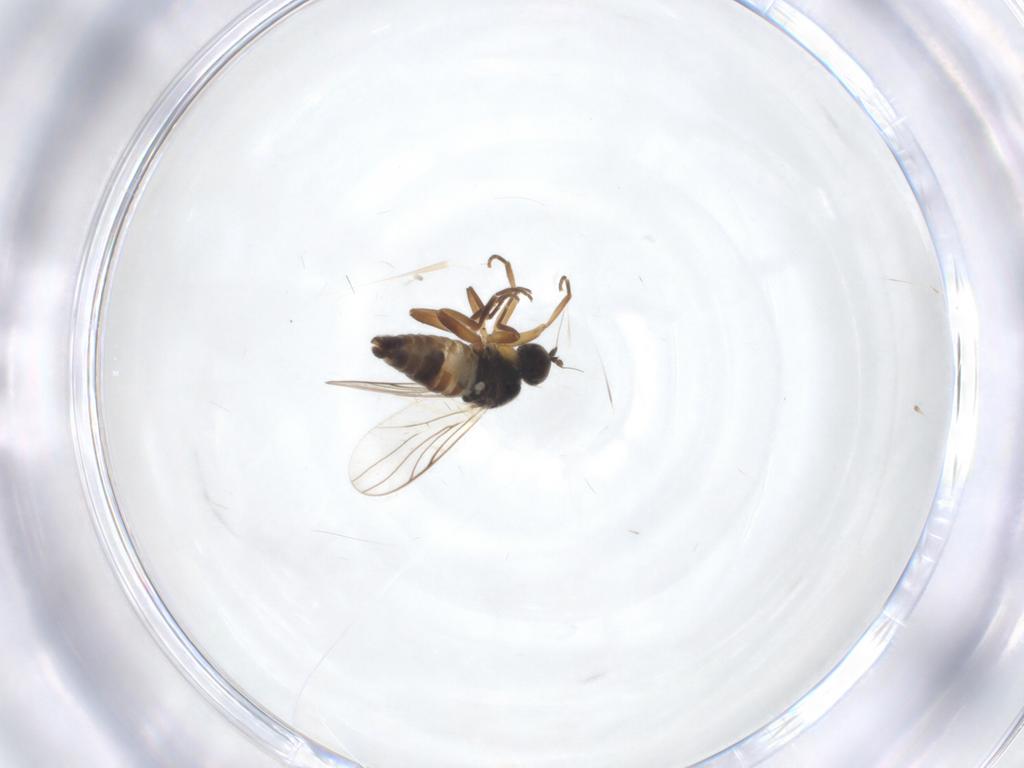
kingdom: Animalia
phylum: Arthropoda
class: Insecta
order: Diptera
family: Hybotidae
